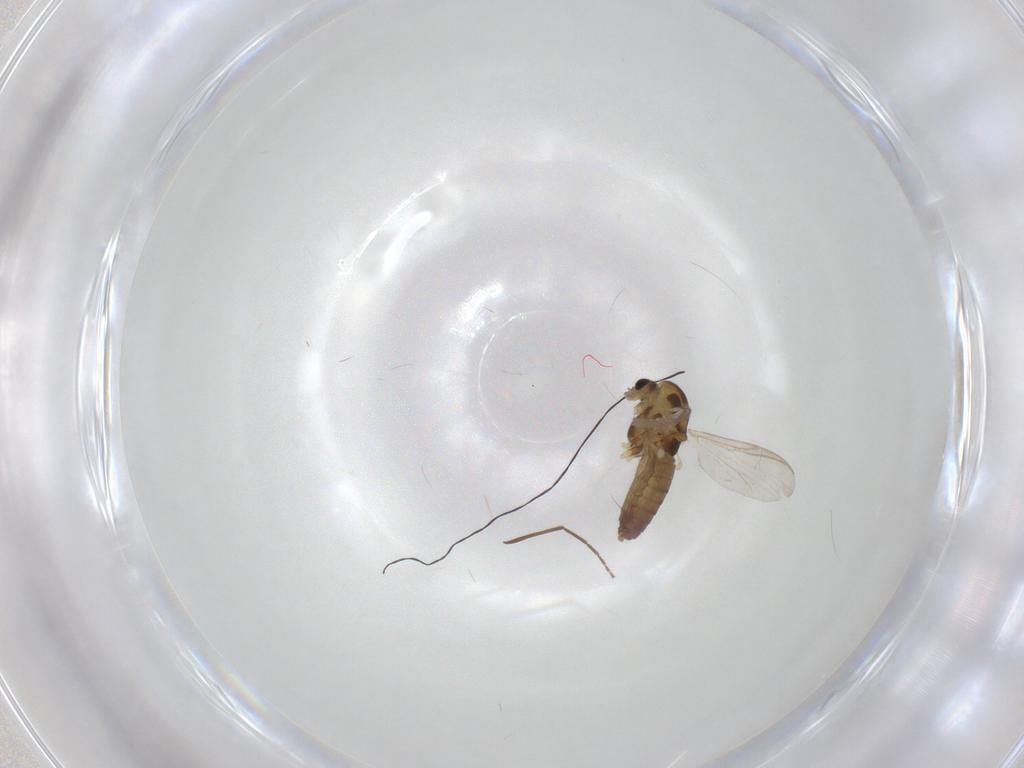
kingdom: Animalia
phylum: Arthropoda
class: Insecta
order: Diptera
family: Chironomidae
